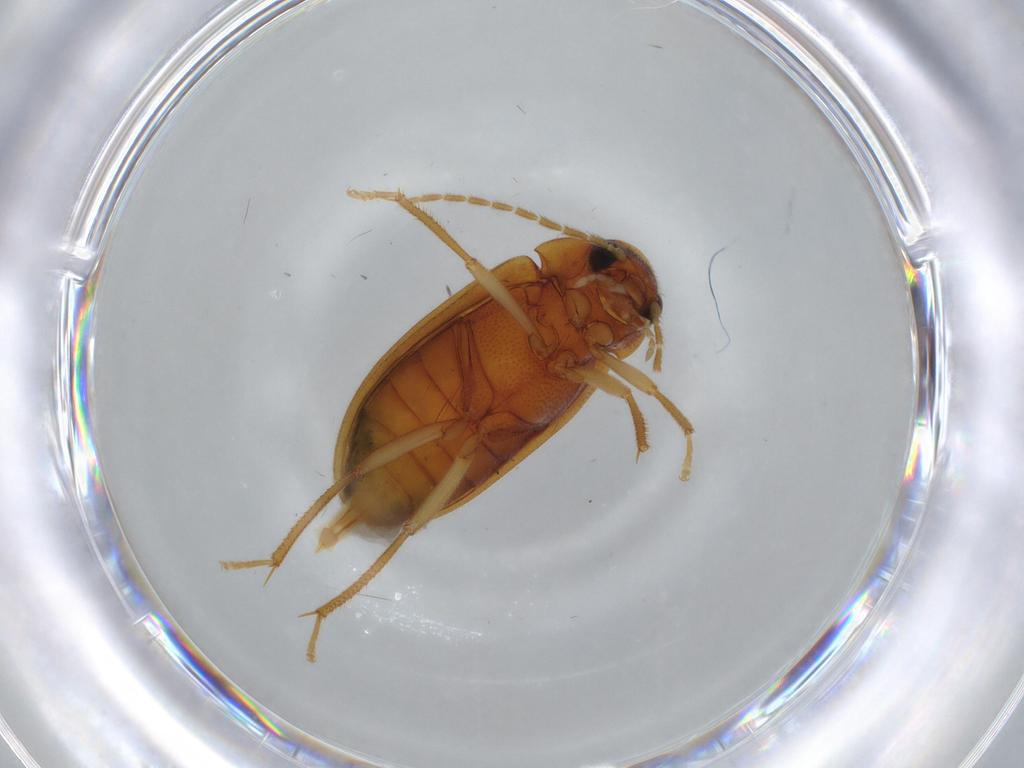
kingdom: Animalia
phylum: Arthropoda
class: Insecta
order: Coleoptera
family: Ptilodactylidae
